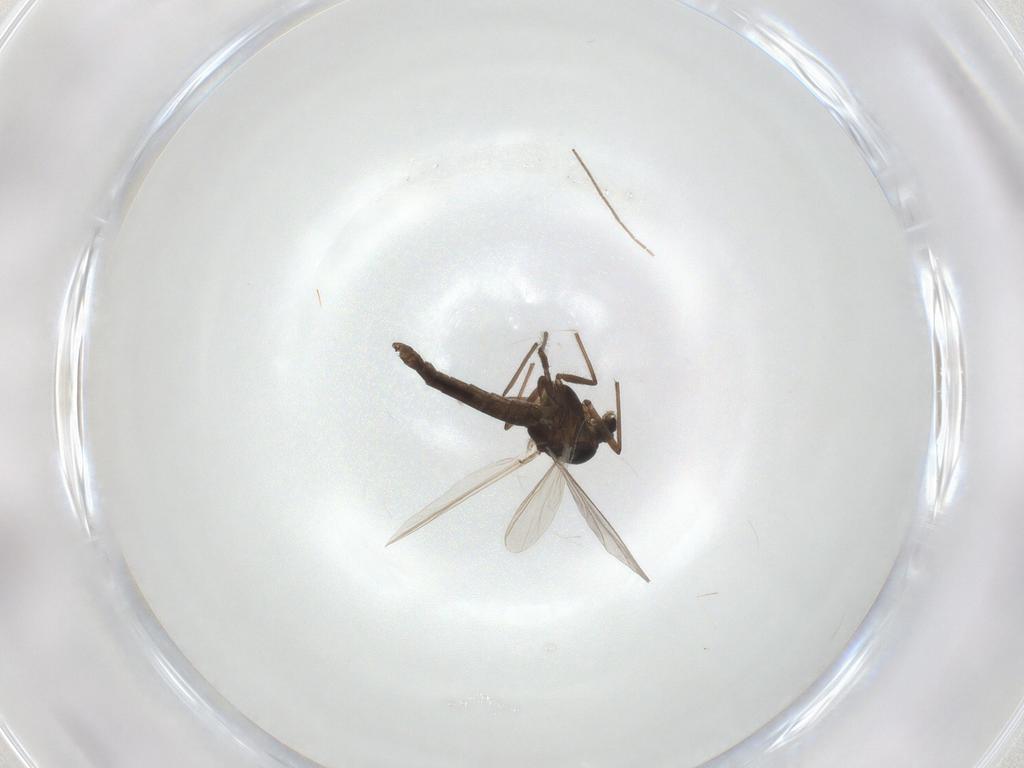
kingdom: Animalia
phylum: Arthropoda
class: Insecta
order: Diptera
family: Chironomidae
